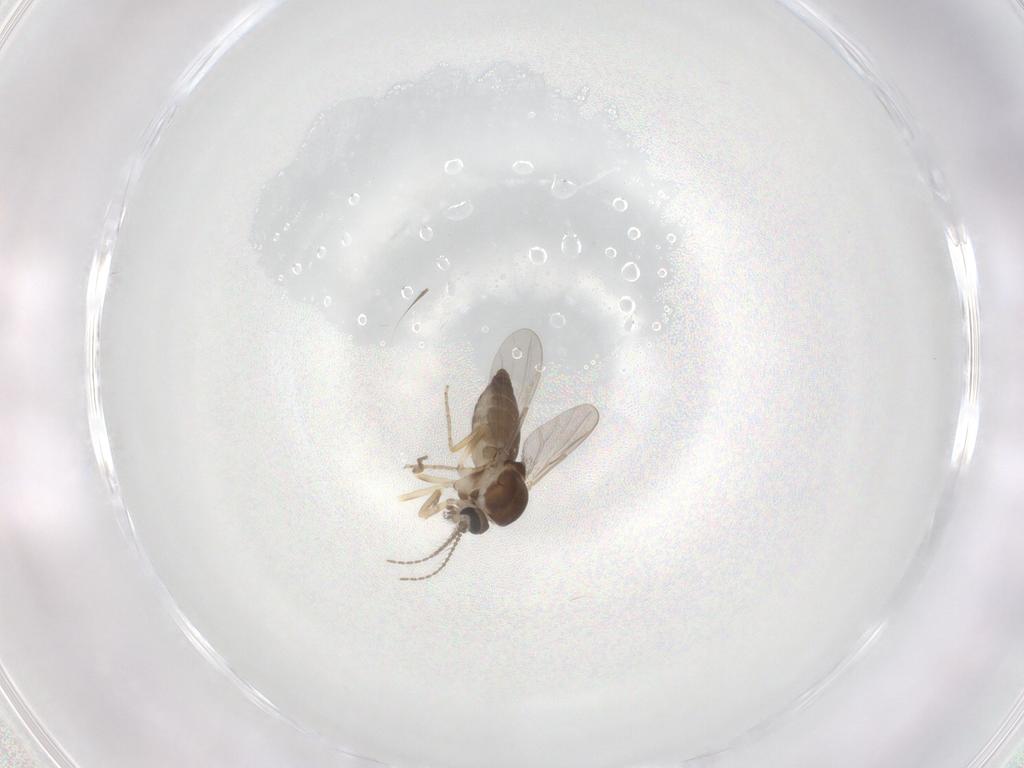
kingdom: Animalia
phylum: Arthropoda
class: Insecta
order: Diptera
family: Ceratopogonidae
